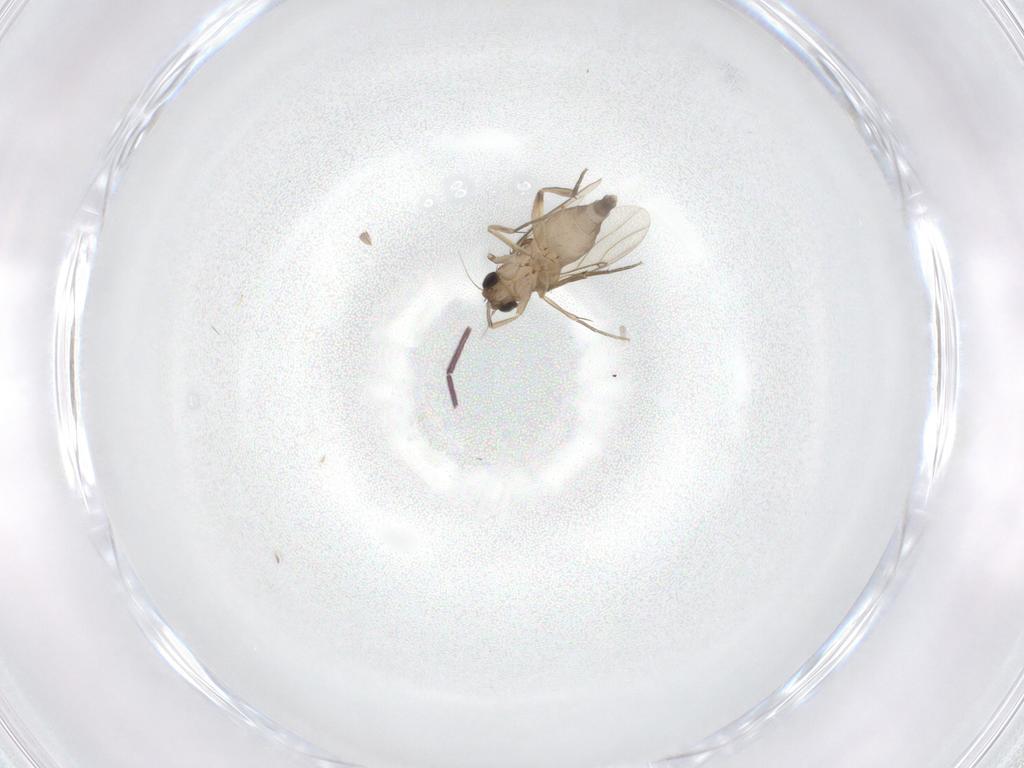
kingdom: Animalia
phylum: Arthropoda
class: Insecta
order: Diptera
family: Phoridae
